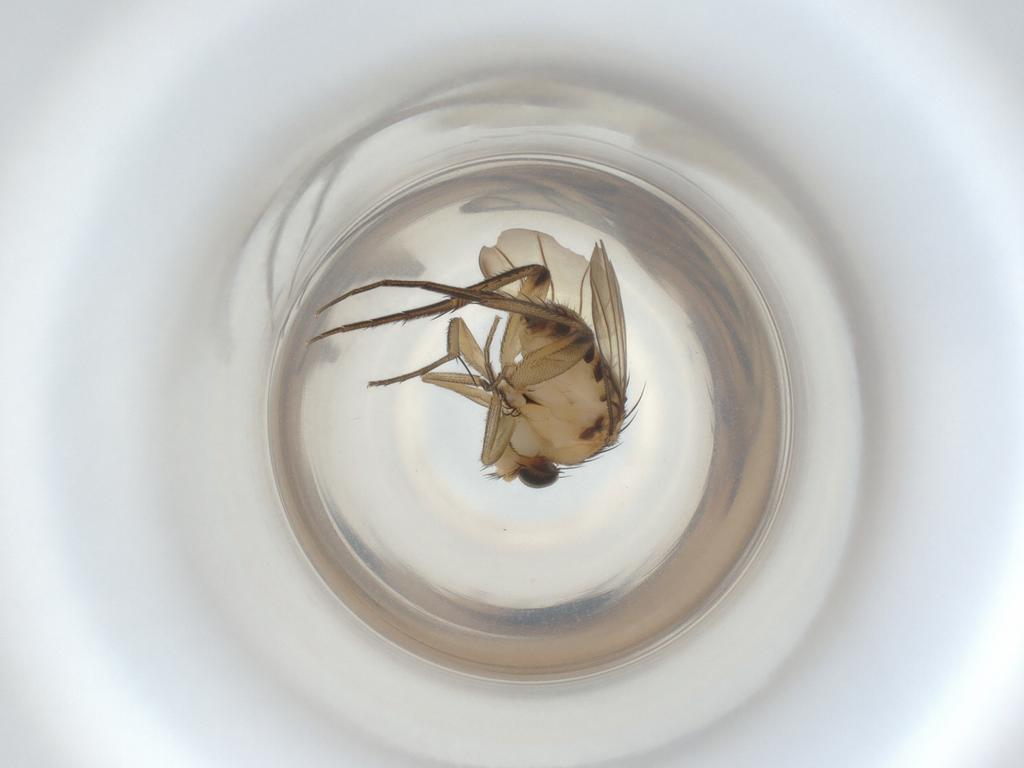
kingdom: Animalia
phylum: Arthropoda
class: Insecta
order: Diptera
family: Phoridae
